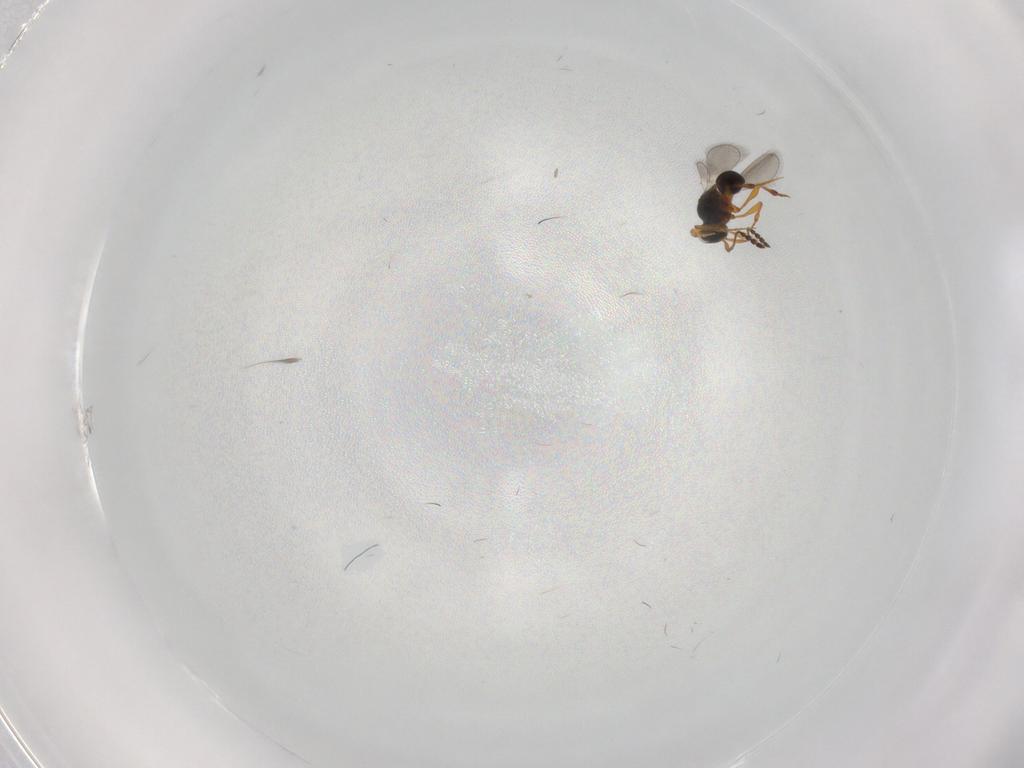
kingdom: Animalia
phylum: Arthropoda
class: Insecta
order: Hymenoptera
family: Platygastridae
